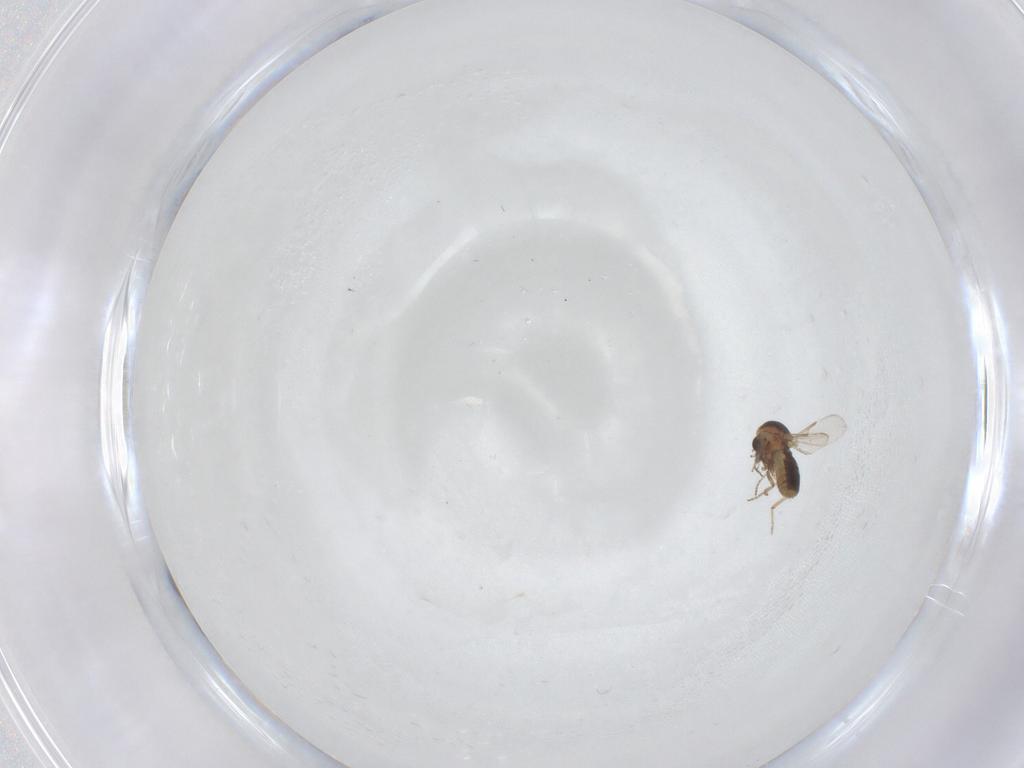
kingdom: Animalia
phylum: Arthropoda
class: Insecta
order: Diptera
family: Ceratopogonidae
